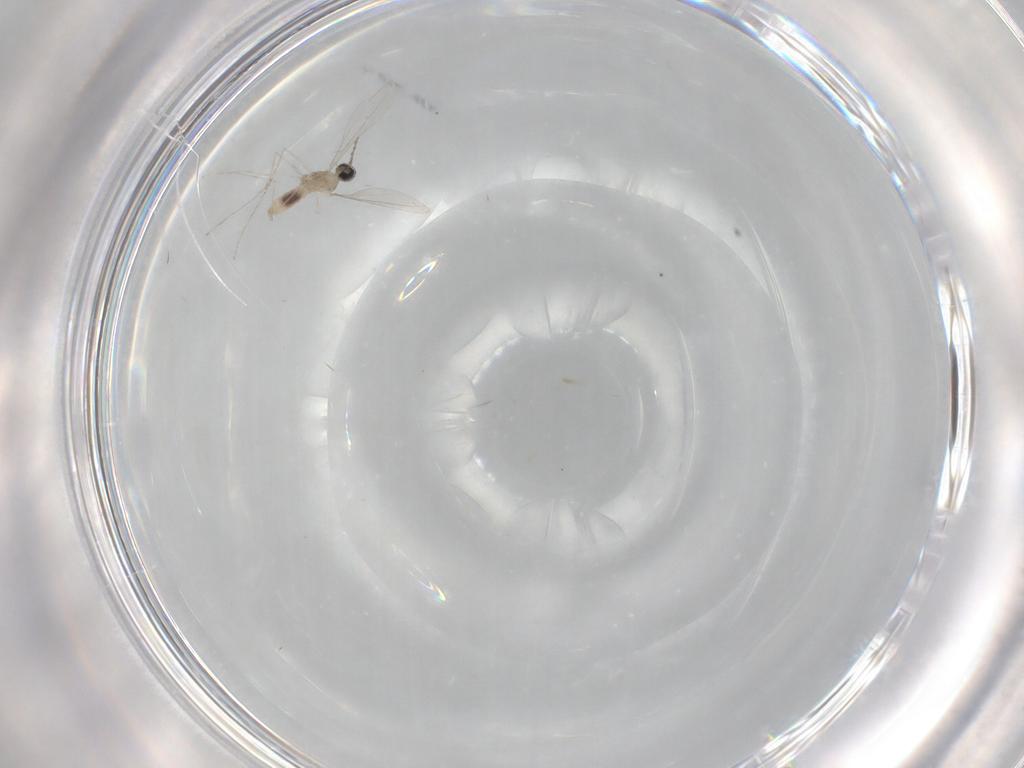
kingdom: Animalia
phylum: Arthropoda
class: Insecta
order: Diptera
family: Cecidomyiidae
